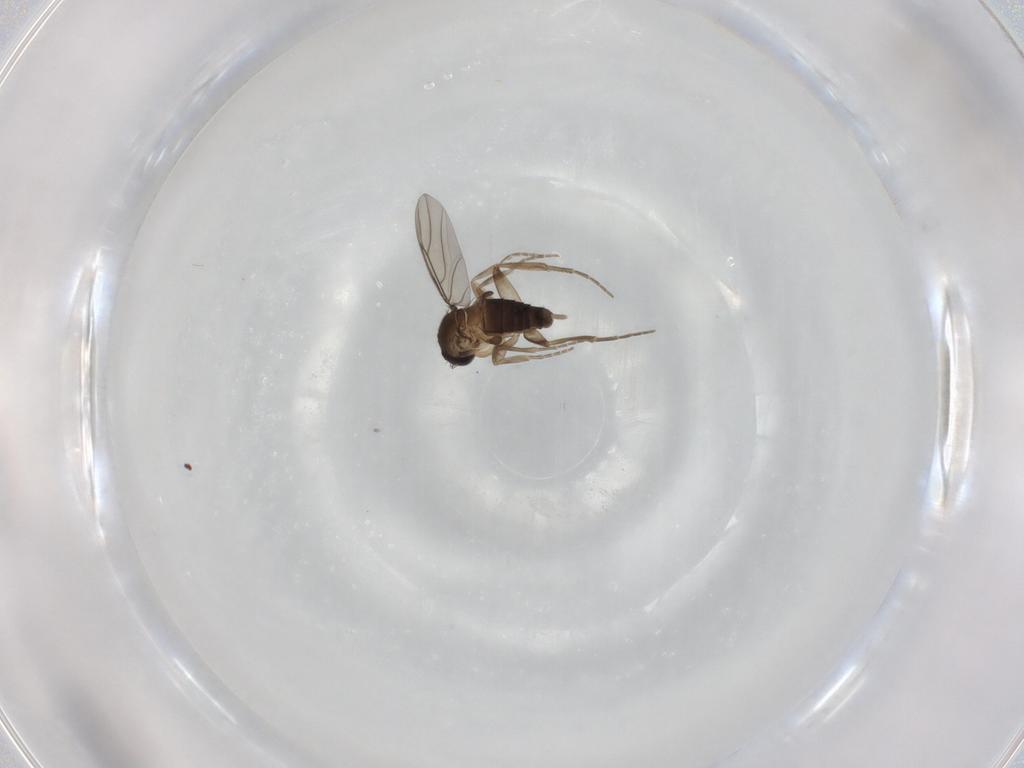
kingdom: Animalia
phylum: Arthropoda
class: Insecta
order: Diptera
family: Phoridae
